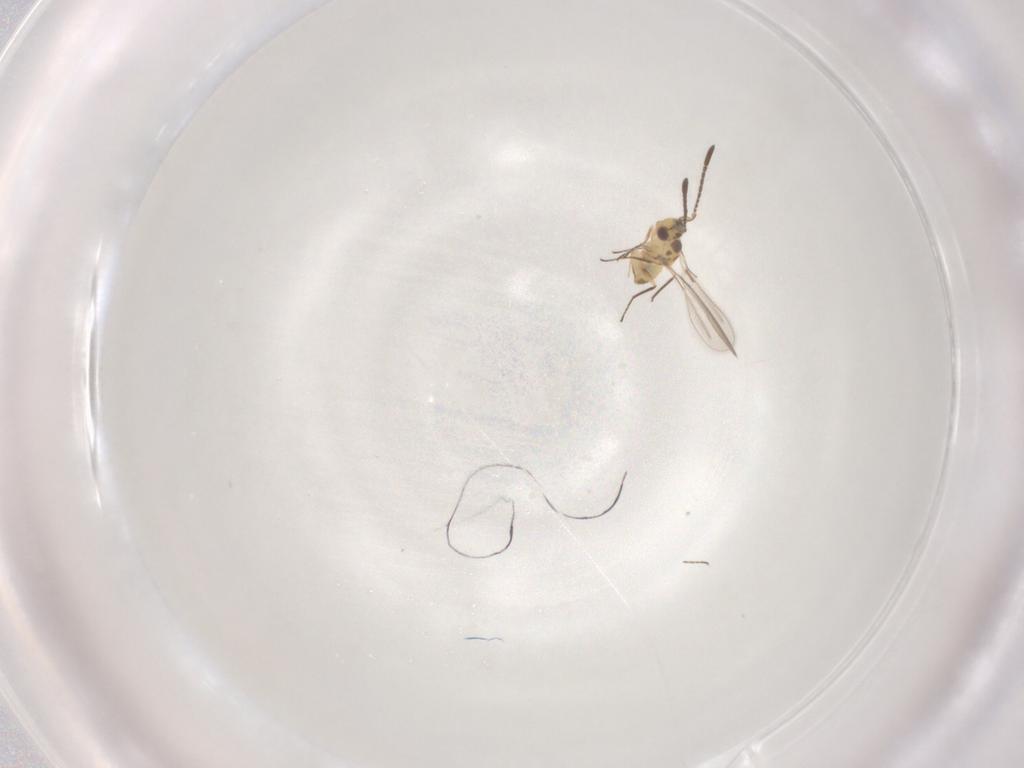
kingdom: Animalia
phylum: Arthropoda
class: Insecta
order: Hymenoptera
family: Mymaridae
